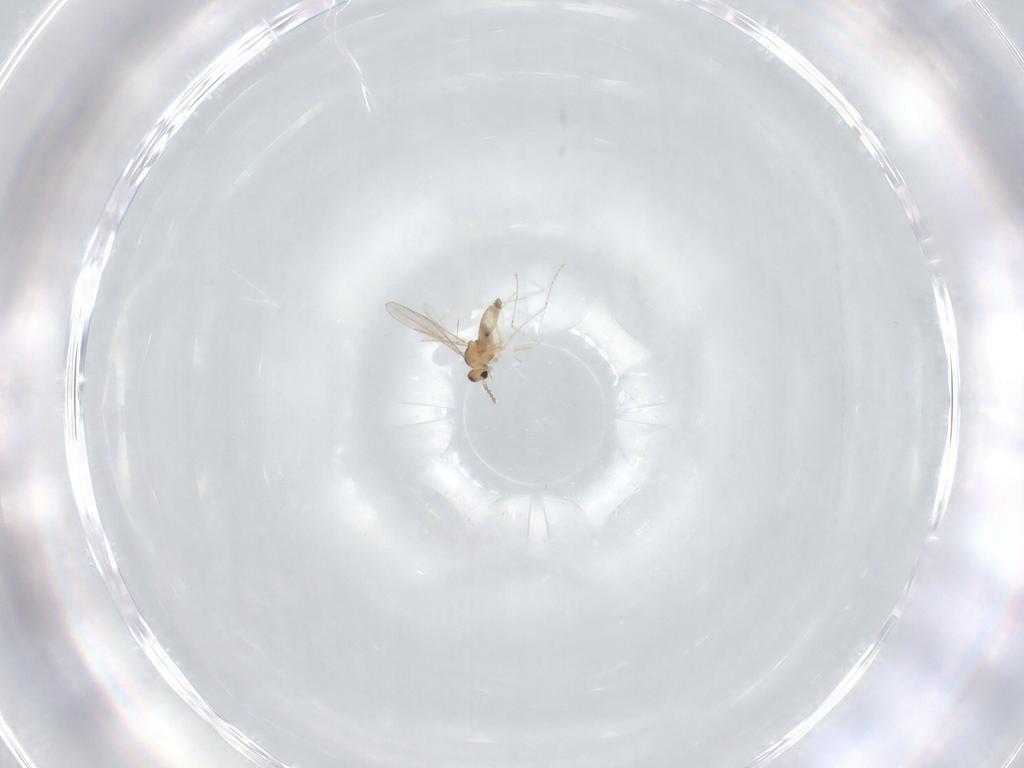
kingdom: Animalia
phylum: Arthropoda
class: Insecta
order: Diptera
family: Cecidomyiidae
